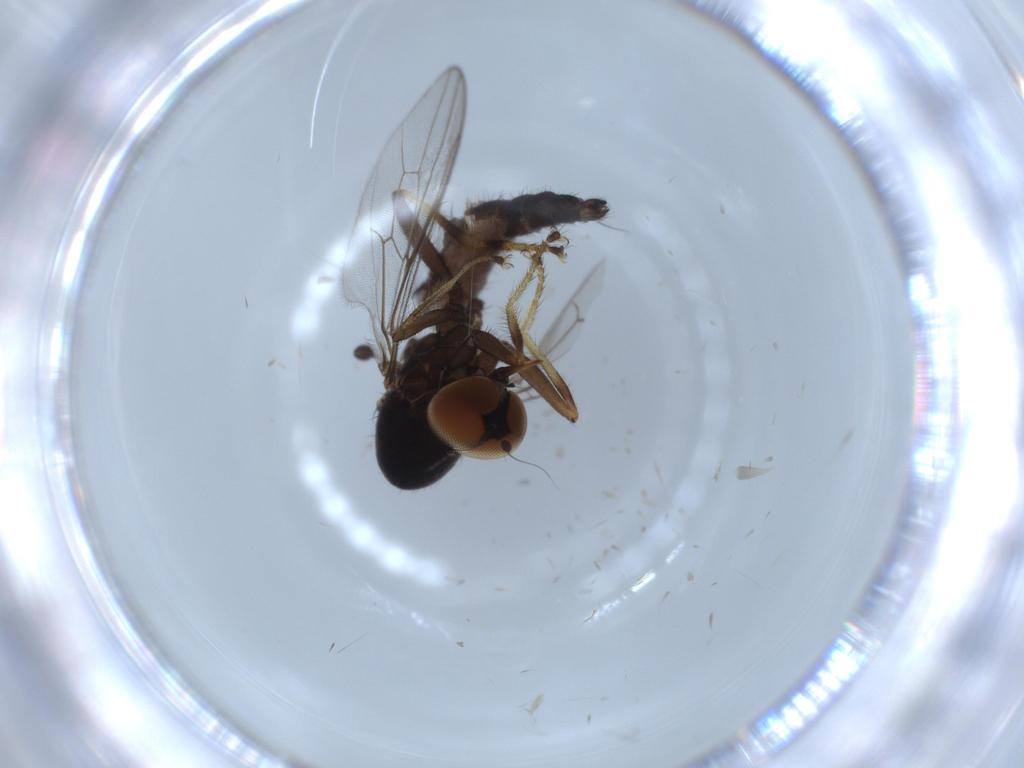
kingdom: Animalia
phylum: Arthropoda
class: Insecta
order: Diptera
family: Hybotidae
